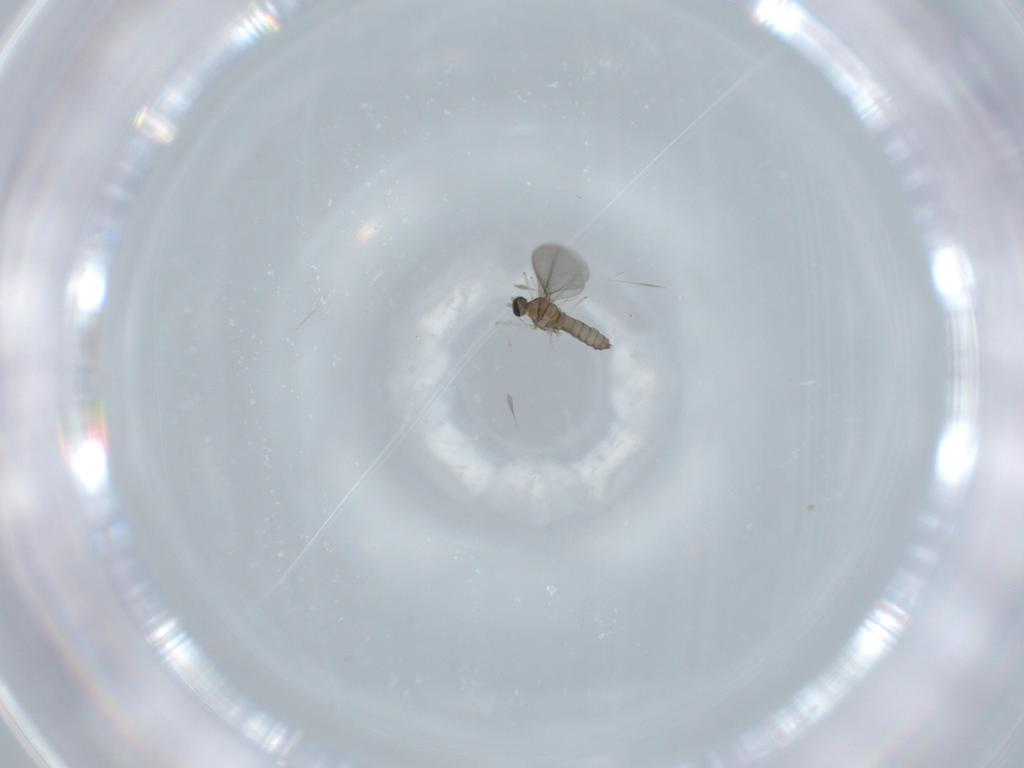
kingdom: Animalia
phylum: Arthropoda
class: Insecta
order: Diptera
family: Cecidomyiidae
